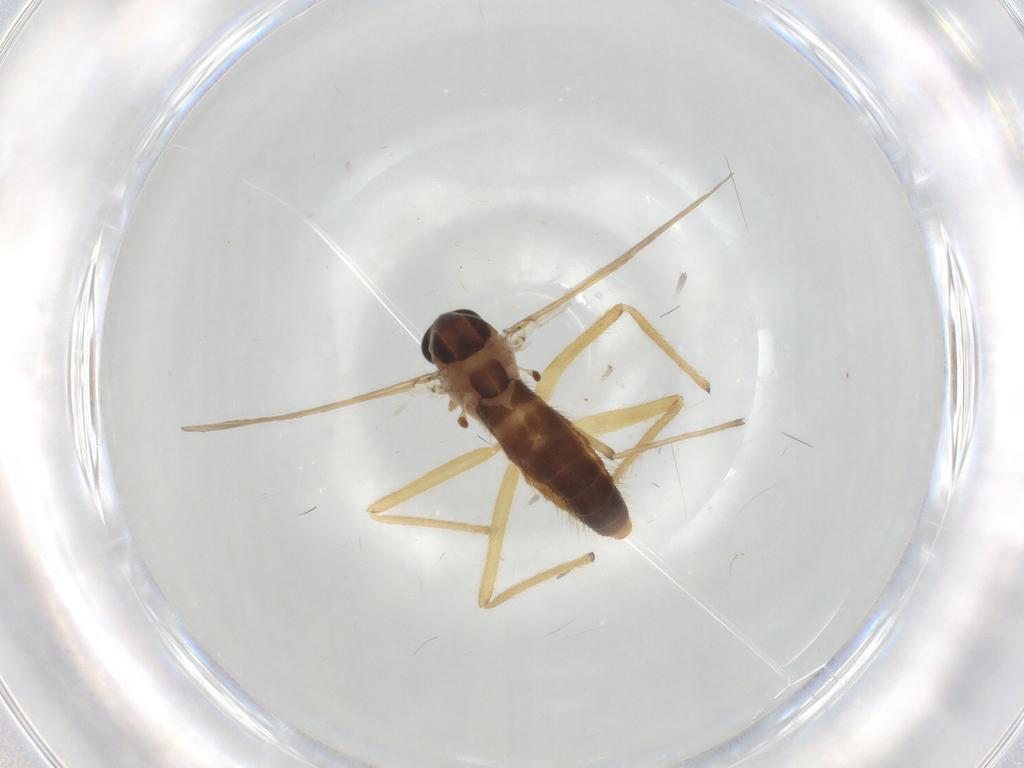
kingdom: Animalia
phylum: Arthropoda
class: Insecta
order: Diptera
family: Chironomidae
